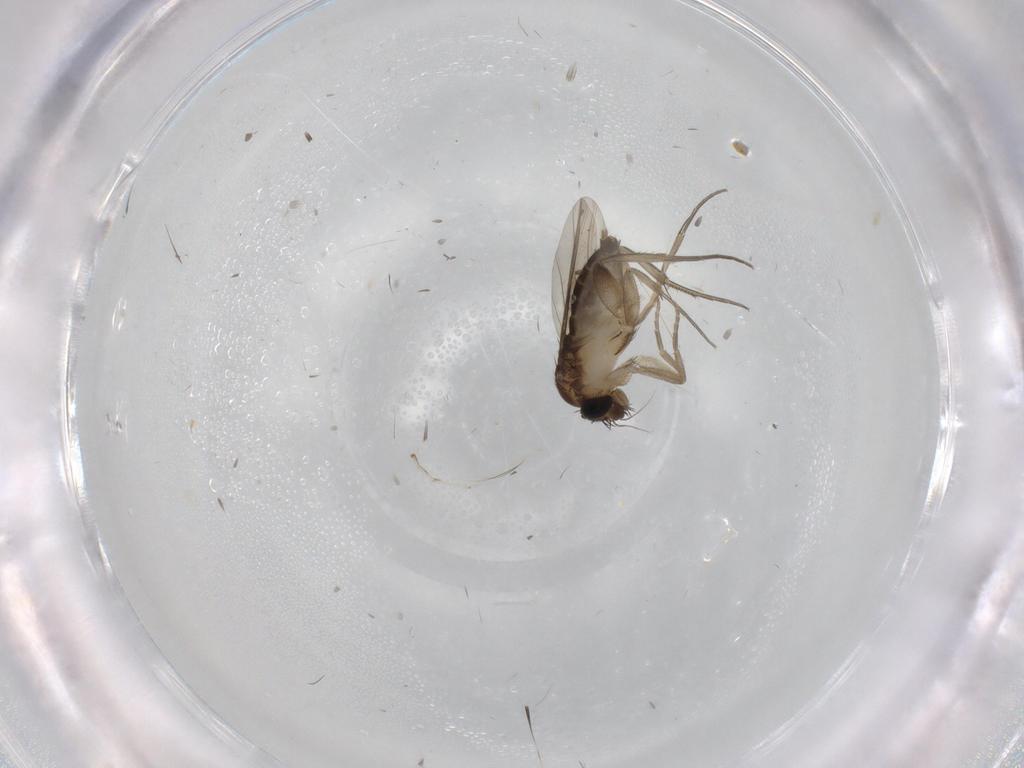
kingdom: Animalia
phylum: Arthropoda
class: Insecta
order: Diptera
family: Phoridae
